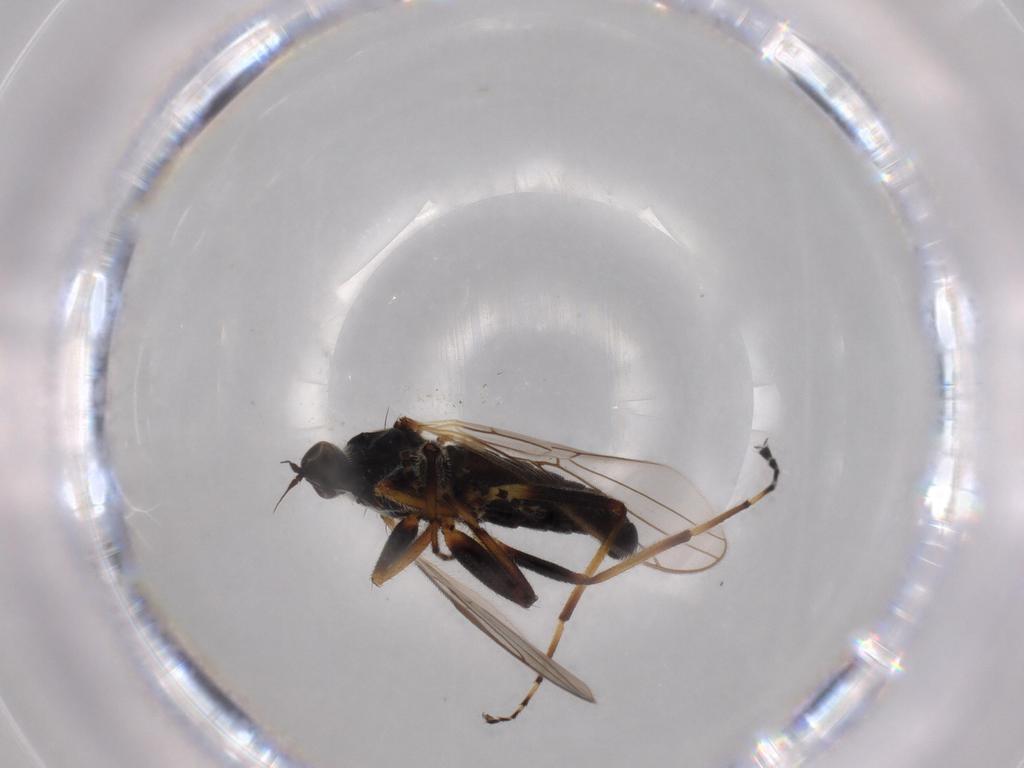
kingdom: Animalia
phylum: Arthropoda
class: Insecta
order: Diptera
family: Hybotidae
